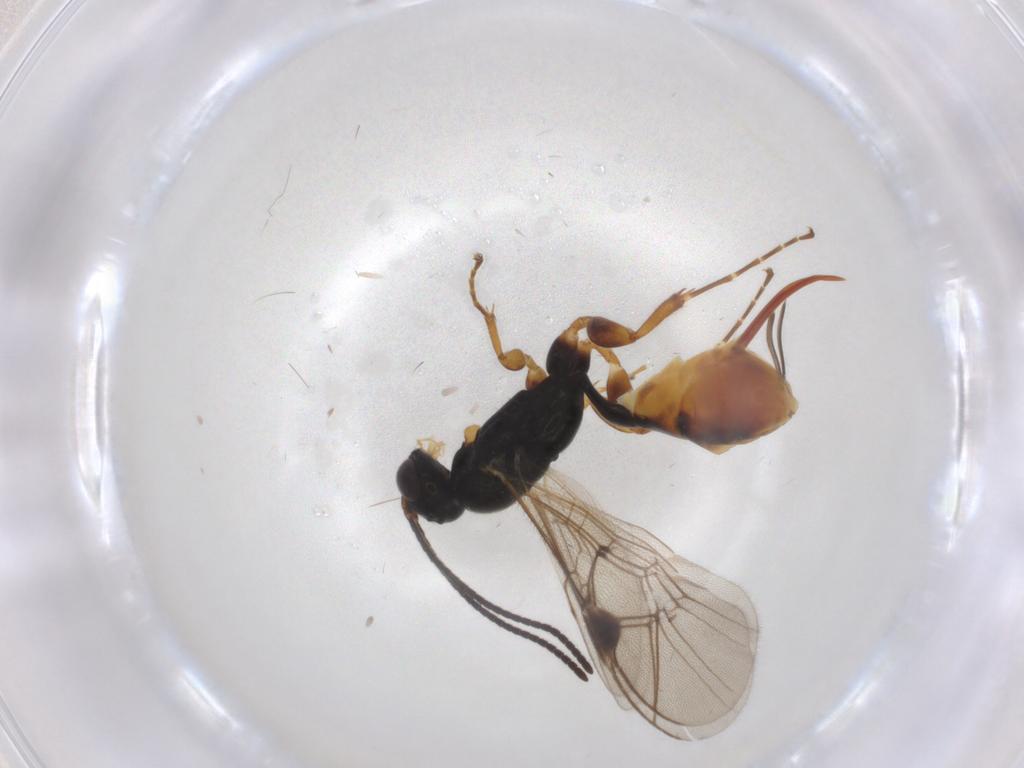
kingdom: Animalia
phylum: Arthropoda
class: Insecta
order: Hymenoptera
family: Ichneumonidae
